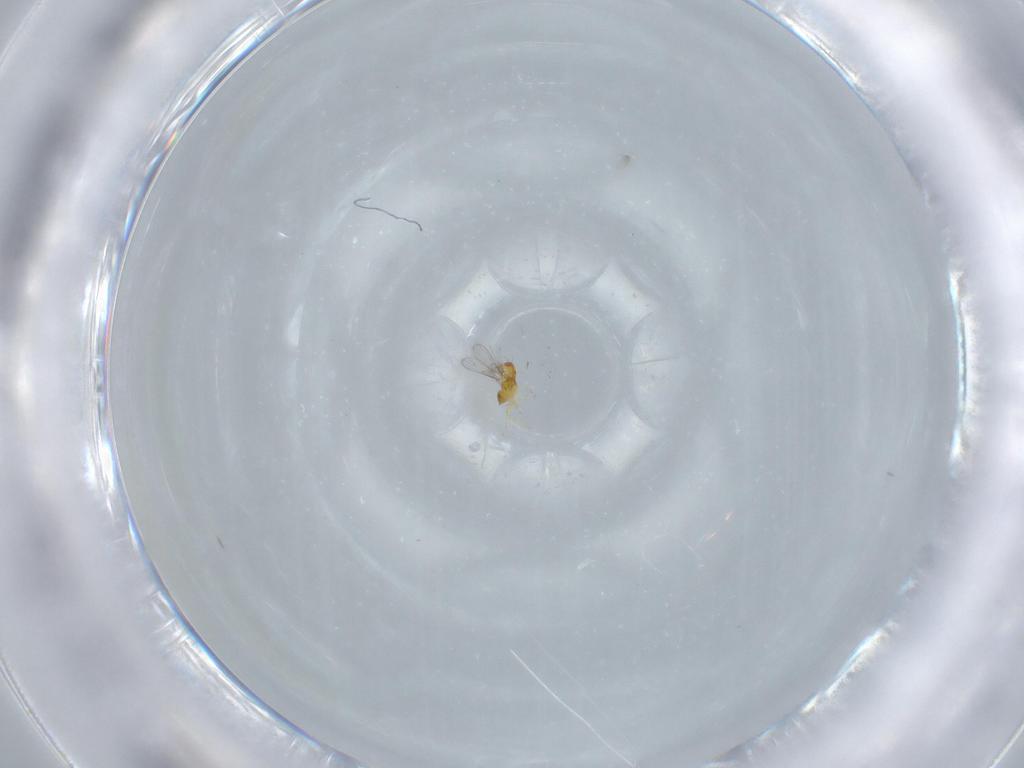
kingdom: Animalia
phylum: Arthropoda
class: Insecta
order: Hymenoptera
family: Trichogrammatidae
